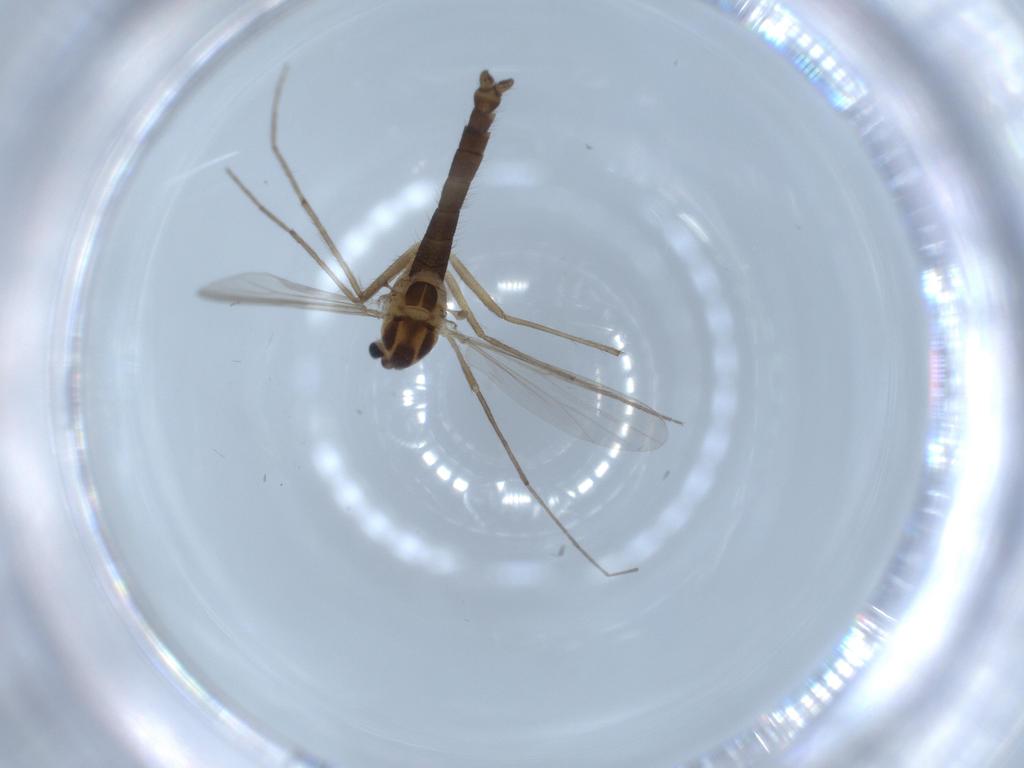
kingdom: Animalia
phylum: Arthropoda
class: Insecta
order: Diptera
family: Chironomidae
